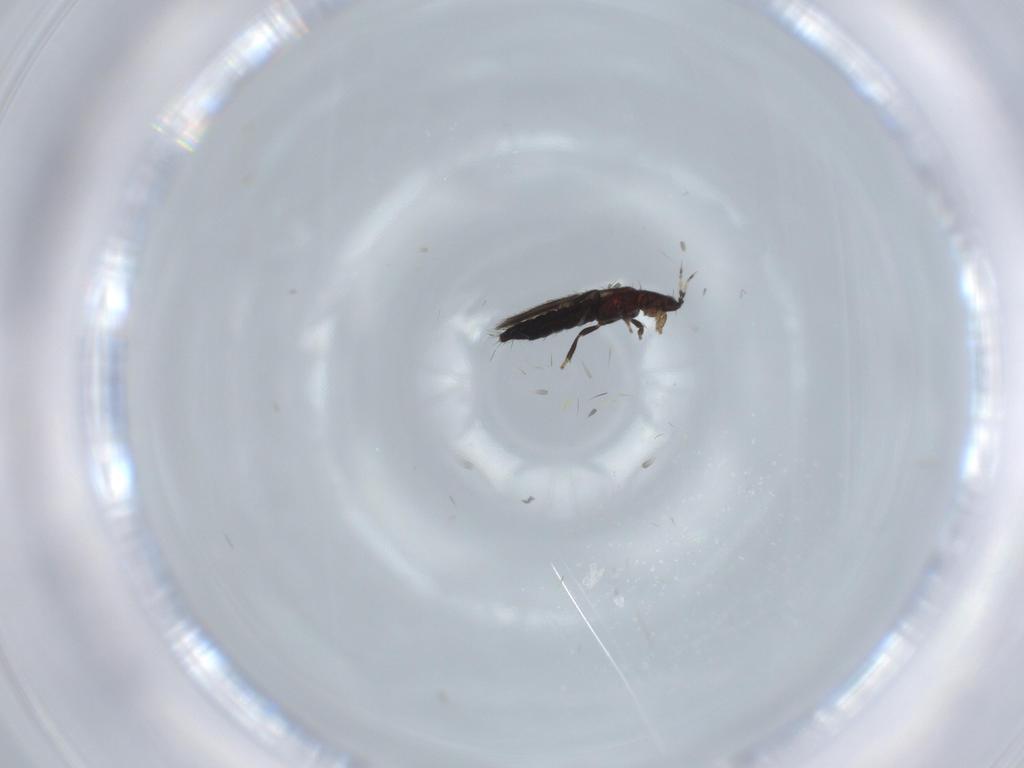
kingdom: Animalia
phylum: Arthropoda
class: Insecta
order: Thysanoptera
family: Thripidae
